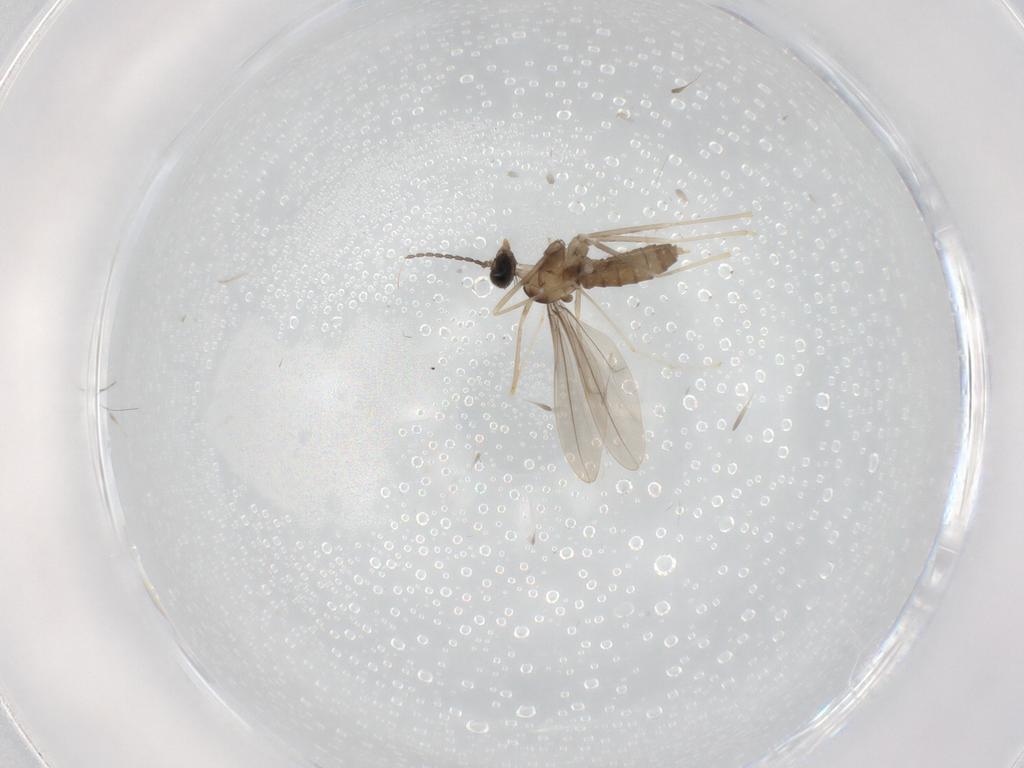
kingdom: Animalia
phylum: Arthropoda
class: Insecta
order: Diptera
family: Cecidomyiidae
